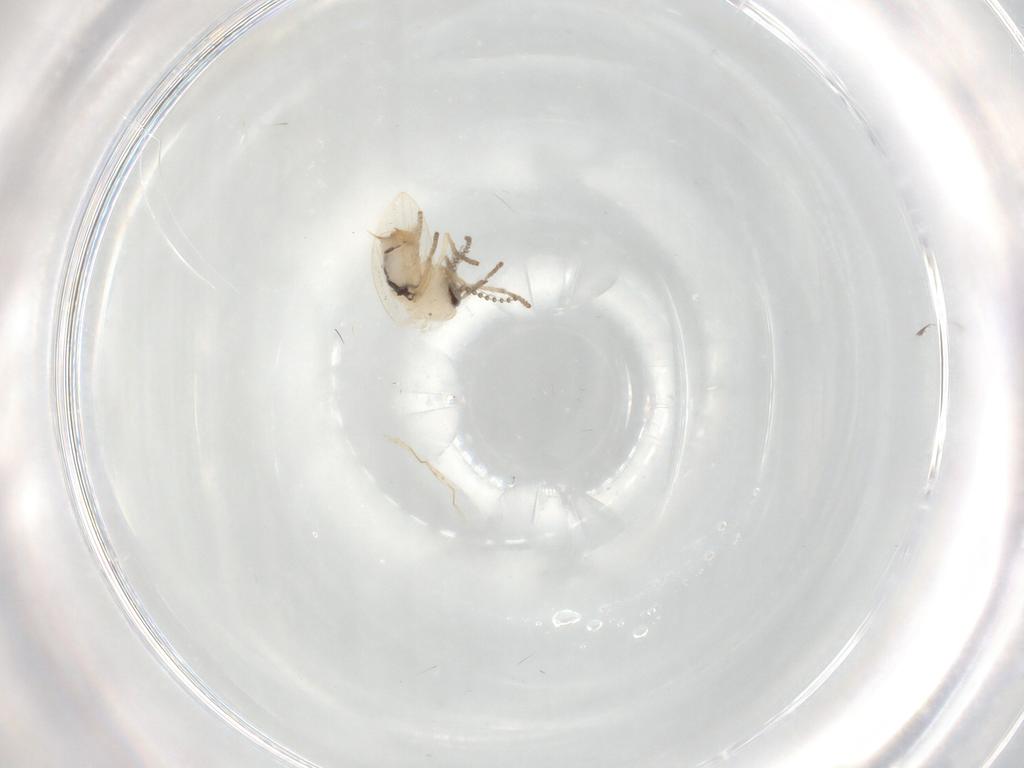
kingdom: Animalia
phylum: Arthropoda
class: Insecta
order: Diptera
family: Psychodidae
